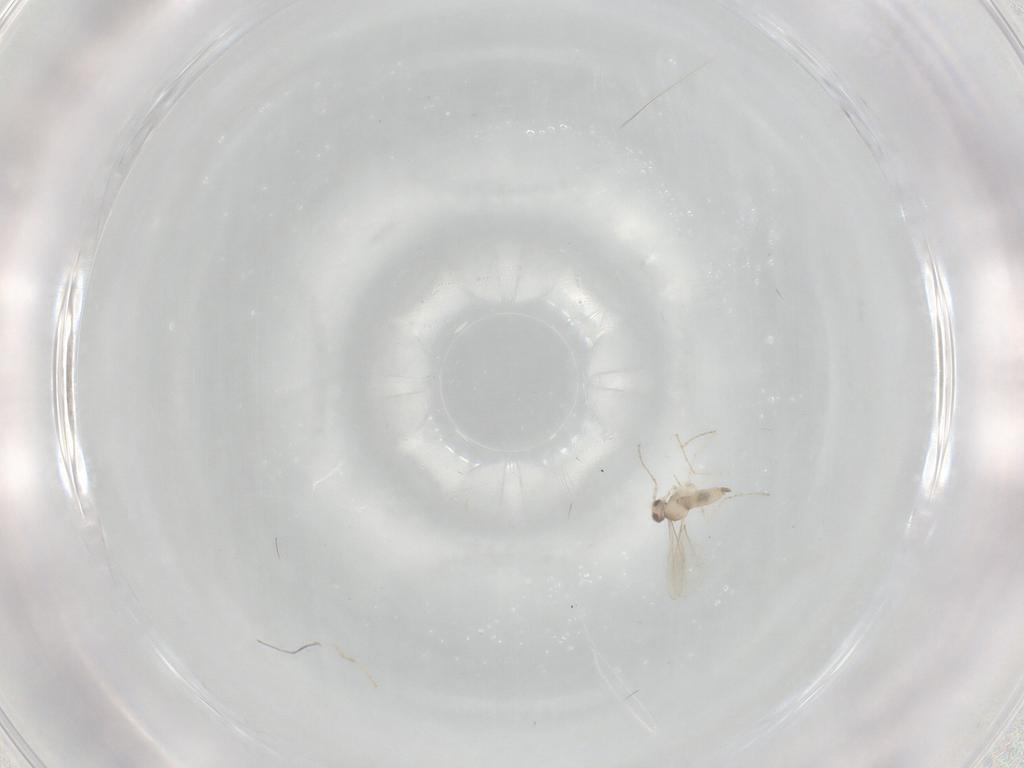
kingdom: Animalia
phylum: Arthropoda
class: Insecta
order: Diptera
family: Cecidomyiidae
